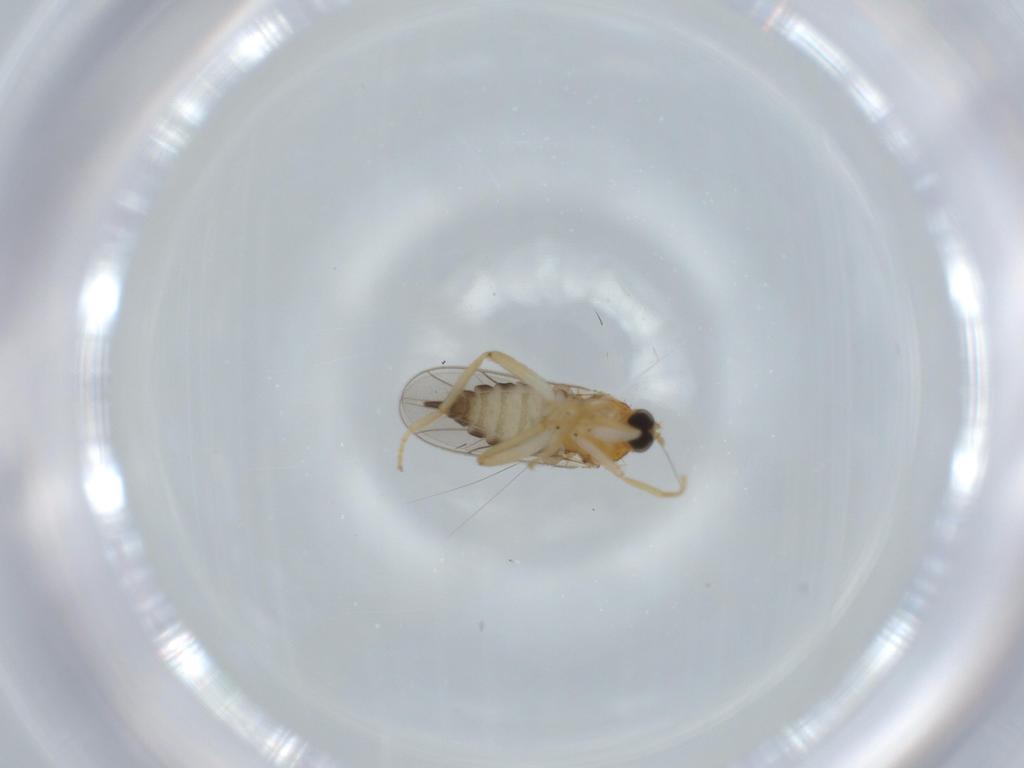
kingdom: Animalia
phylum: Arthropoda
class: Insecta
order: Diptera
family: Hybotidae
